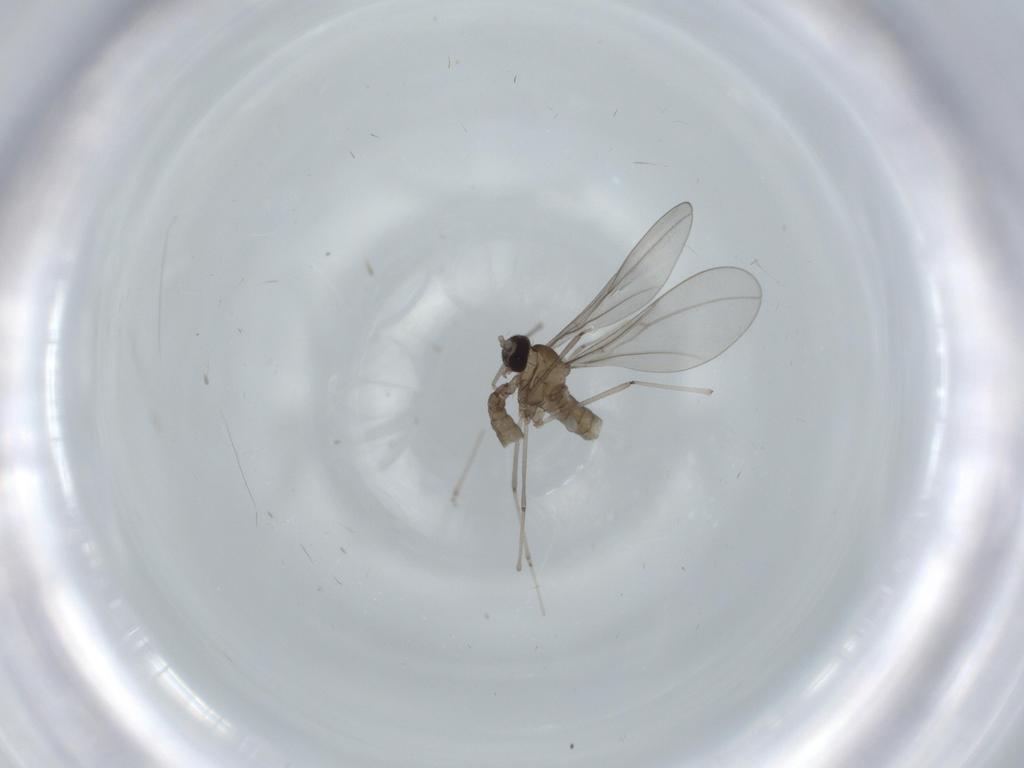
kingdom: Animalia
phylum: Arthropoda
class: Insecta
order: Diptera
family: Cecidomyiidae
